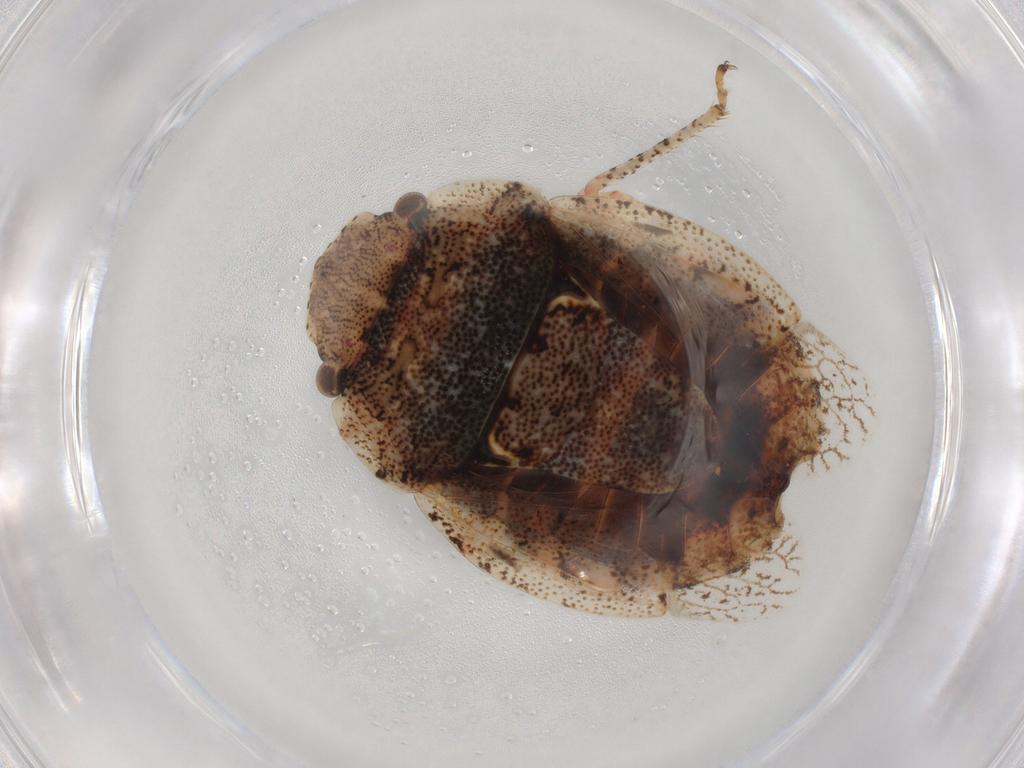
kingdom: Animalia
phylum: Arthropoda
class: Insecta
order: Hemiptera
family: Pentatomidae
